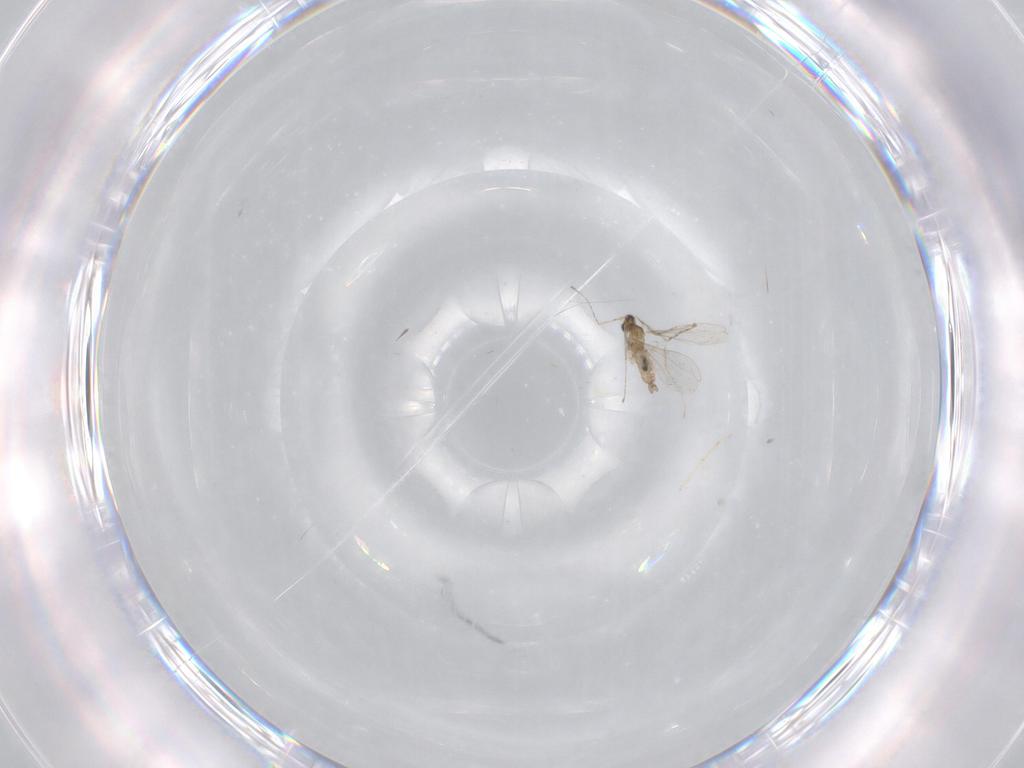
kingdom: Animalia
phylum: Arthropoda
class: Insecta
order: Diptera
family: Cecidomyiidae
